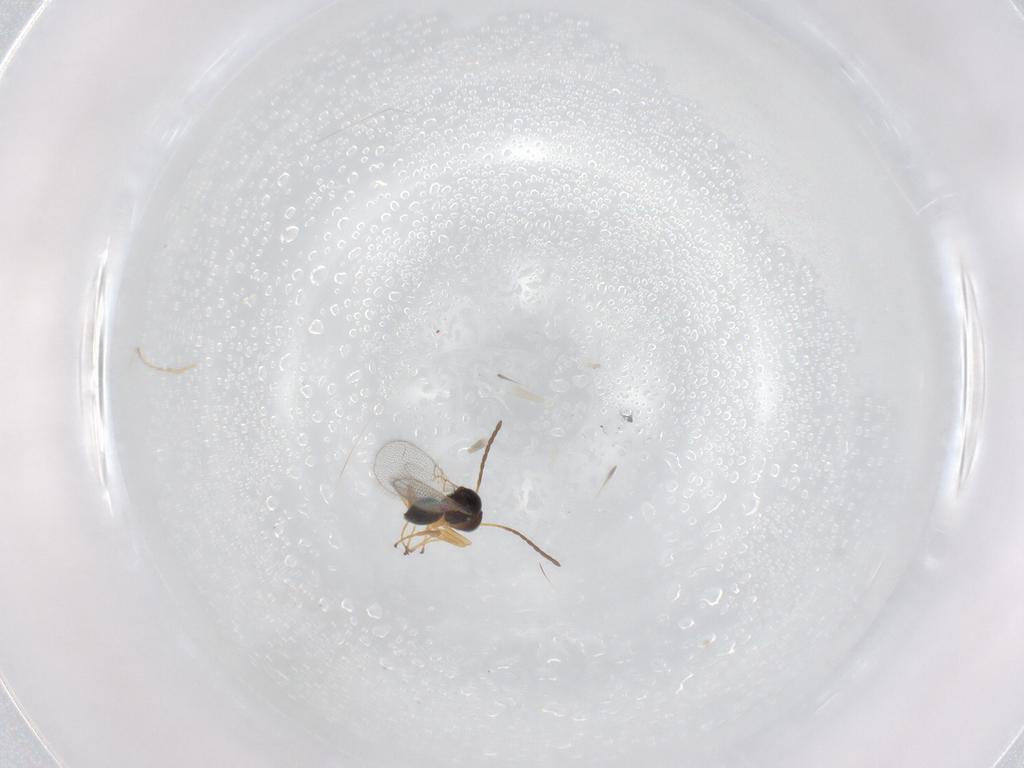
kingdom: Animalia
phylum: Arthropoda
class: Insecta
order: Hymenoptera
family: Figitidae
